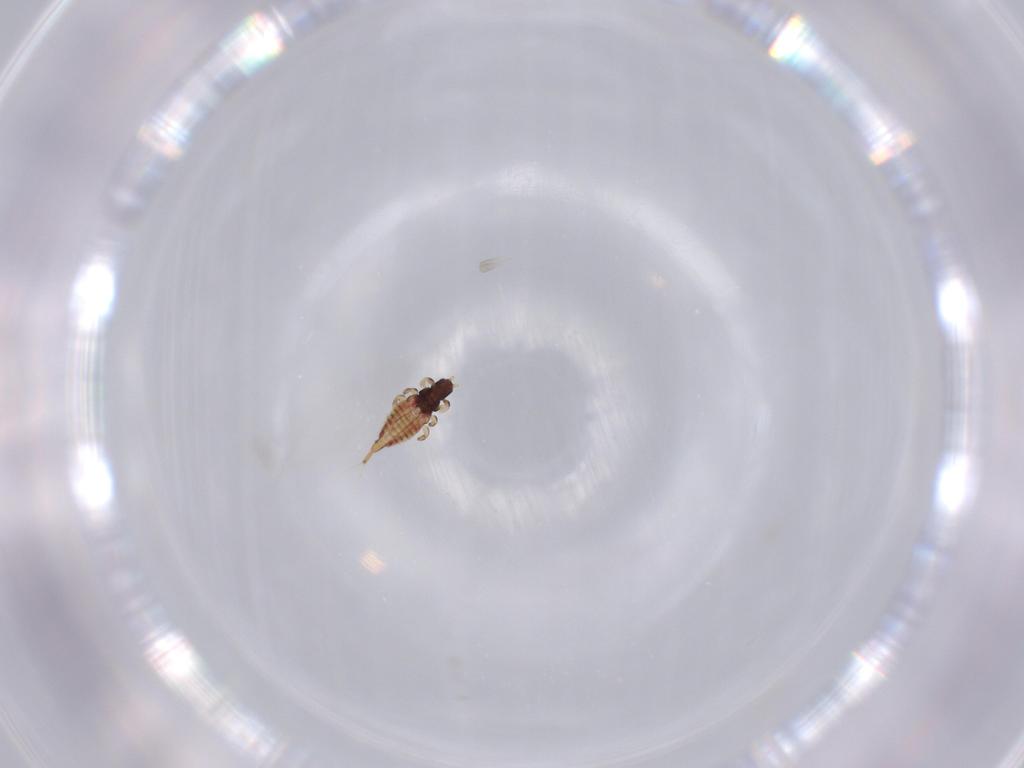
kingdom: Animalia
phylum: Arthropoda
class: Insecta
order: Thysanoptera
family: Phlaeothripidae
